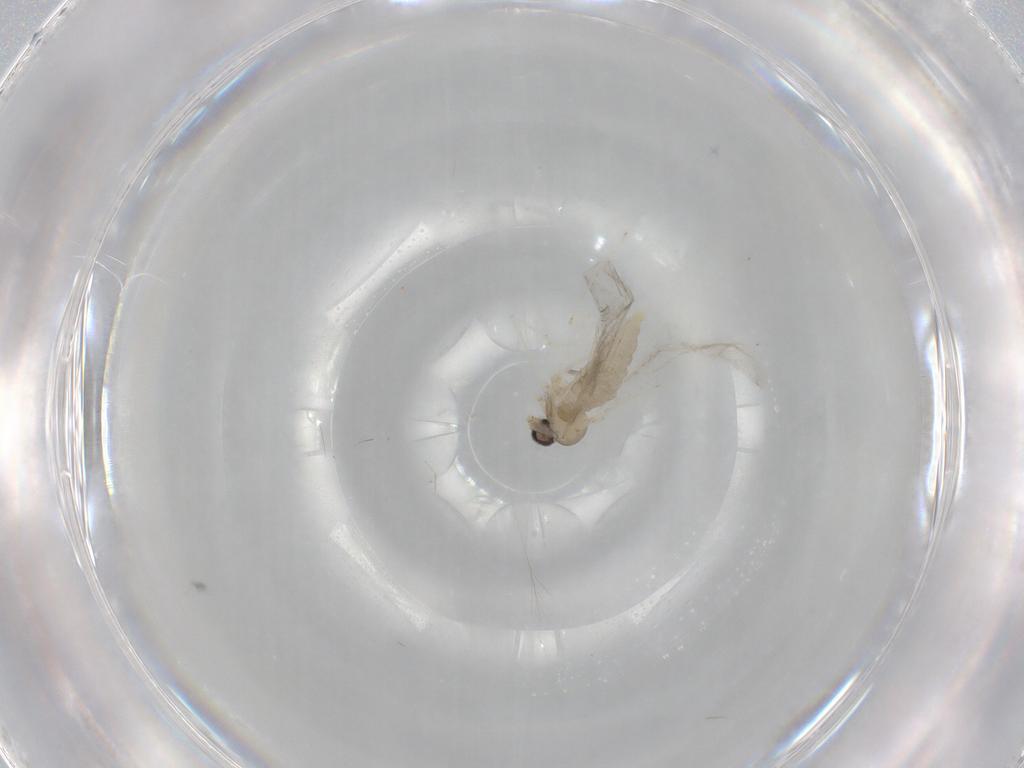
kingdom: Animalia
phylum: Arthropoda
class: Insecta
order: Diptera
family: Cecidomyiidae
